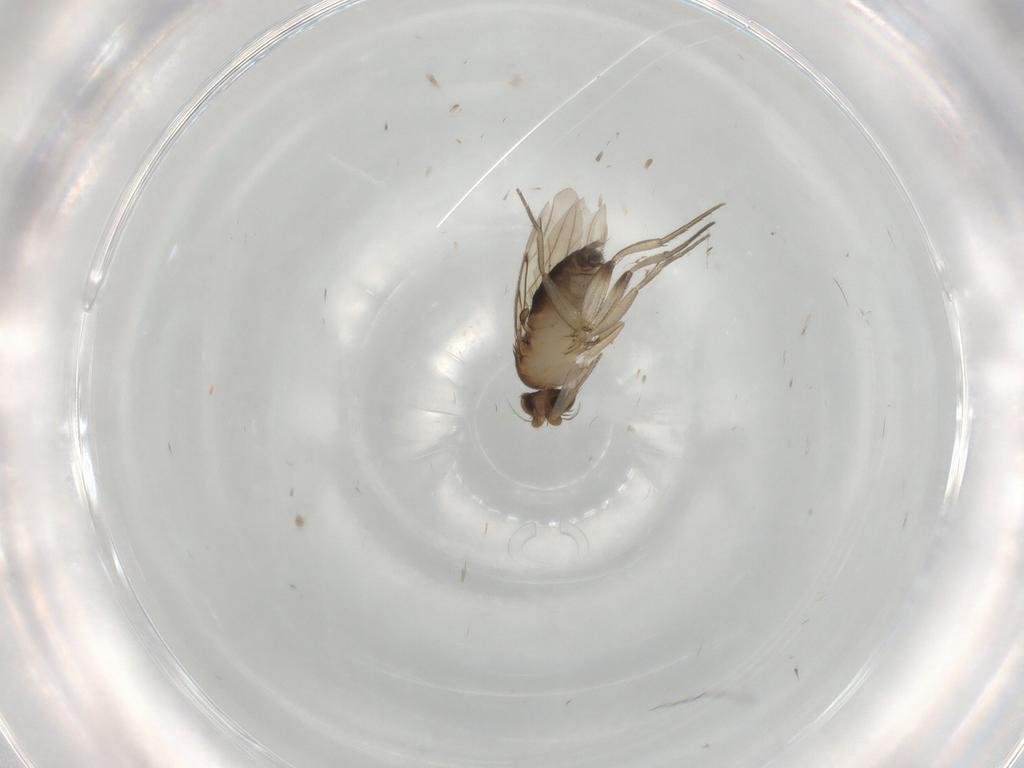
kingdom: Animalia
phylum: Arthropoda
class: Insecta
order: Diptera
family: Phoridae
